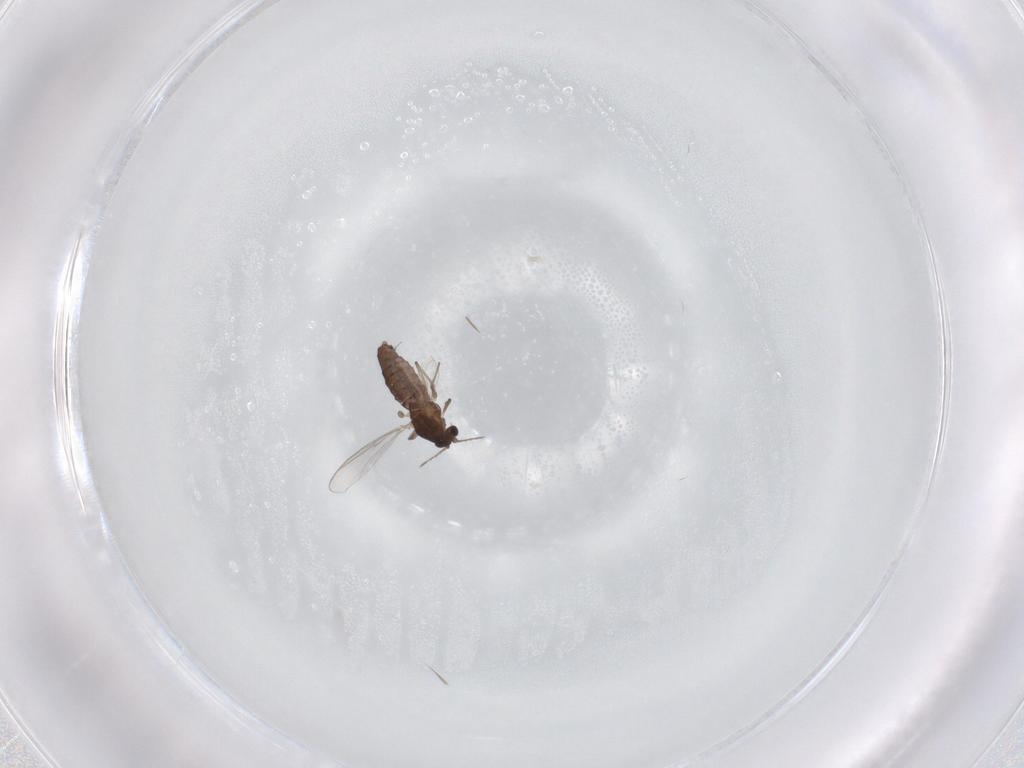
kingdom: Animalia
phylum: Arthropoda
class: Insecta
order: Diptera
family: Chironomidae
